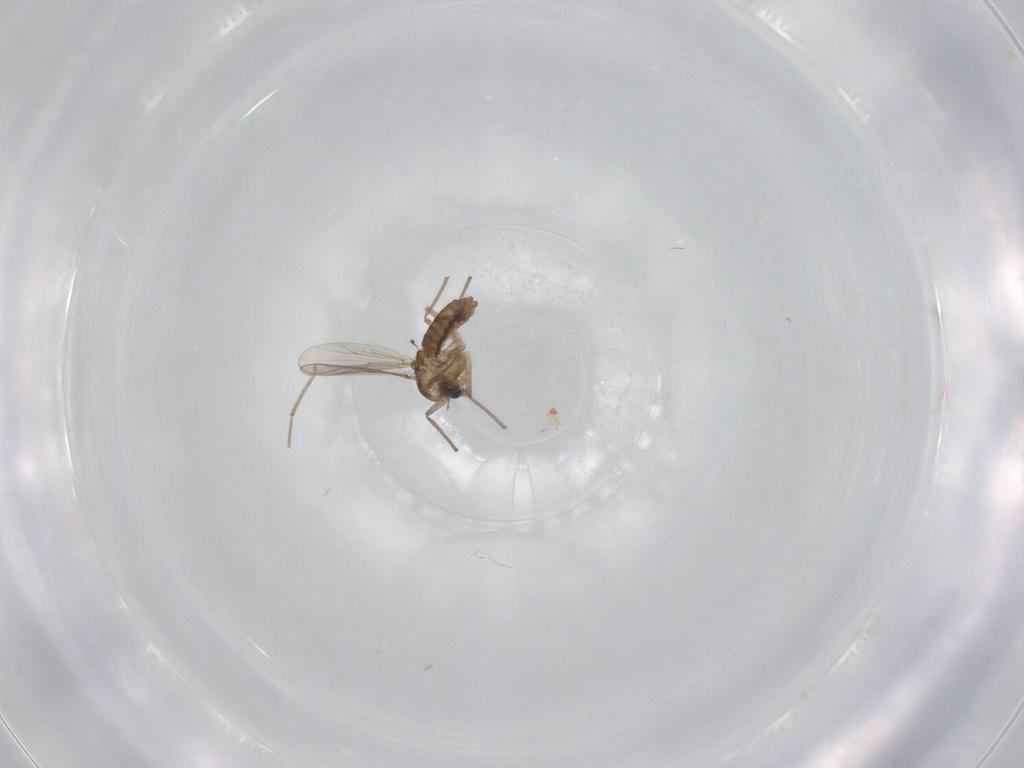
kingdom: Animalia
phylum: Arthropoda
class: Insecta
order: Diptera
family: Chironomidae
